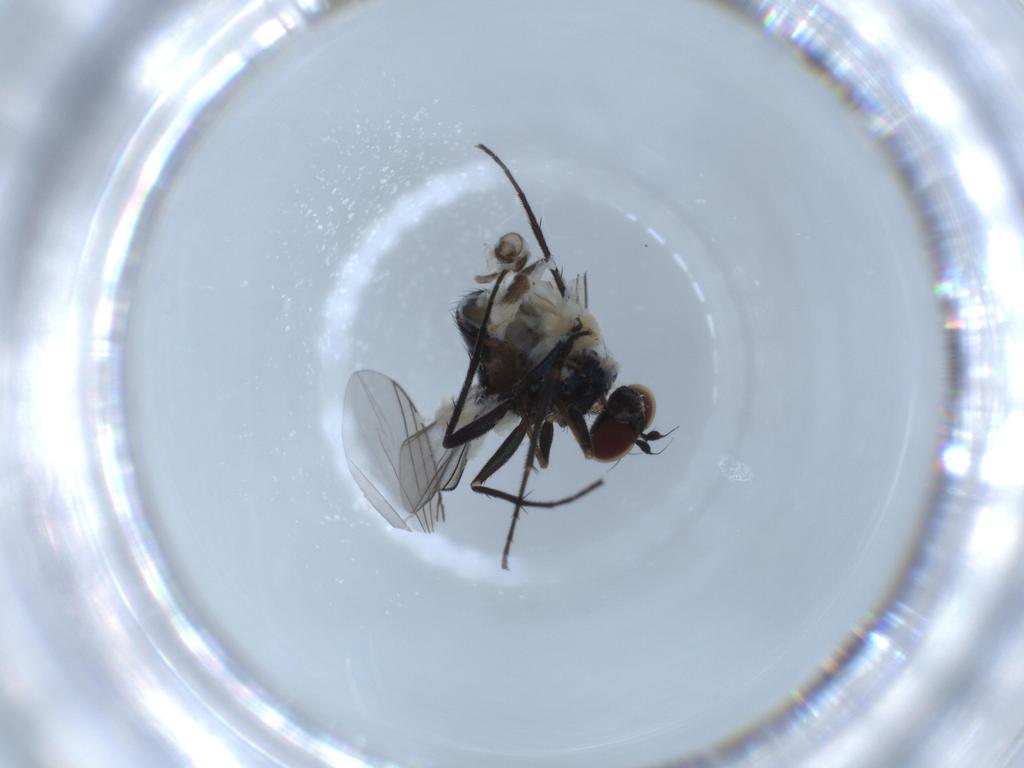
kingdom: Animalia
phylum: Arthropoda
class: Insecta
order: Diptera
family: Dolichopodidae
